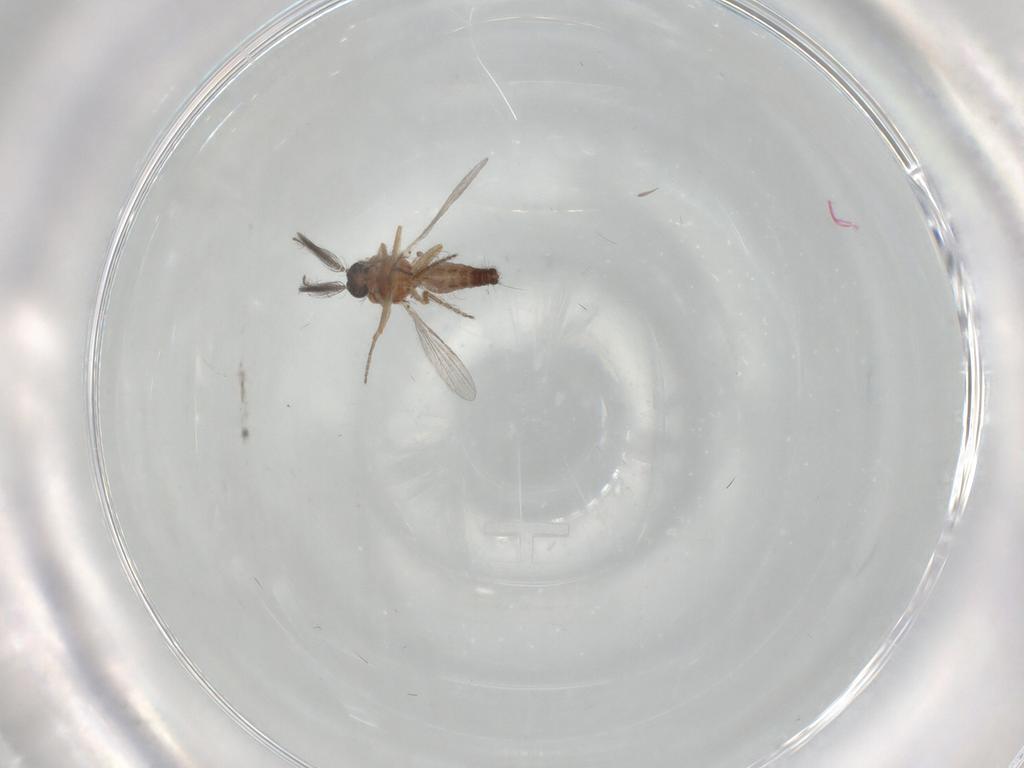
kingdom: Animalia
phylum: Arthropoda
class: Insecta
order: Diptera
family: Ceratopogonidae
